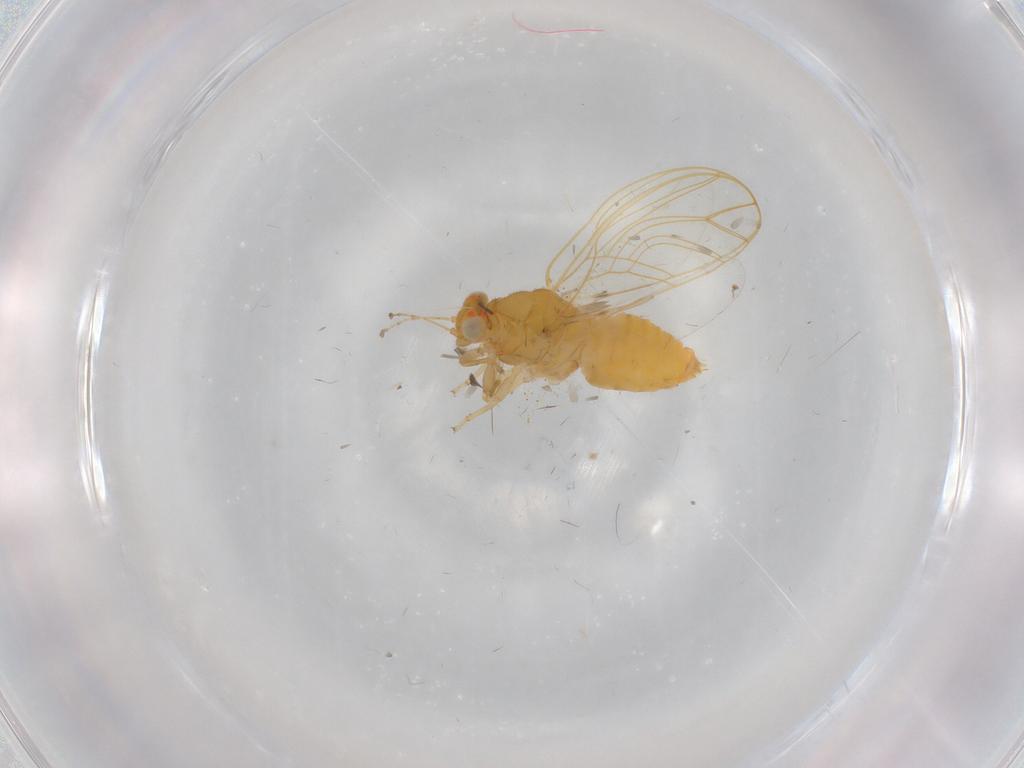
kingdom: Animalia
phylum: Arthropoda
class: Insecta
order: Hemiptera
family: Psylloidea_incertae_sedis
